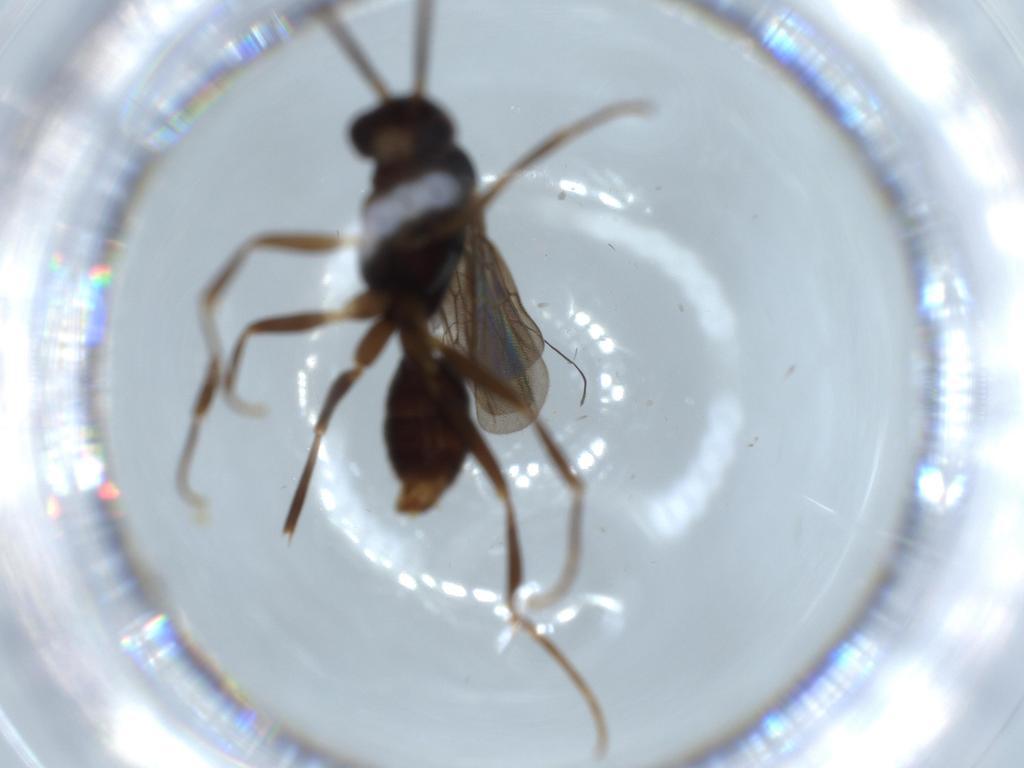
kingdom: Animalia
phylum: Arthropoda
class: Insecta
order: Hymenoptera
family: Formicidae
